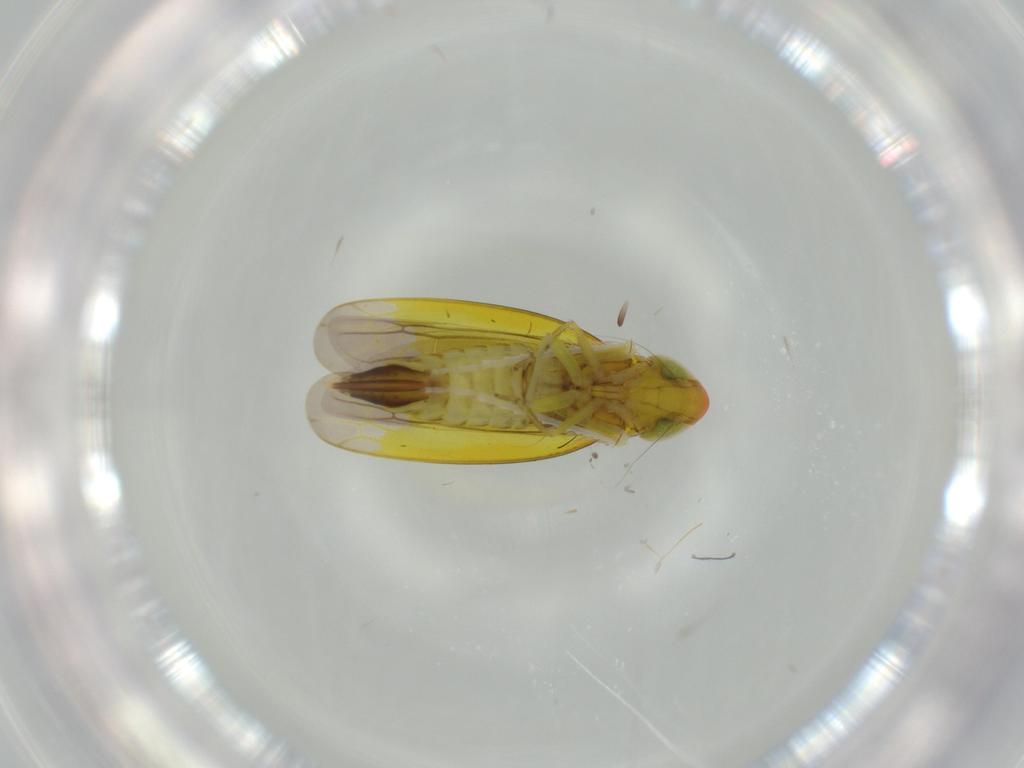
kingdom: Animalia
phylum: Arthropoda
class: Insecta
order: Hemiptera
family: Cicadellidae
